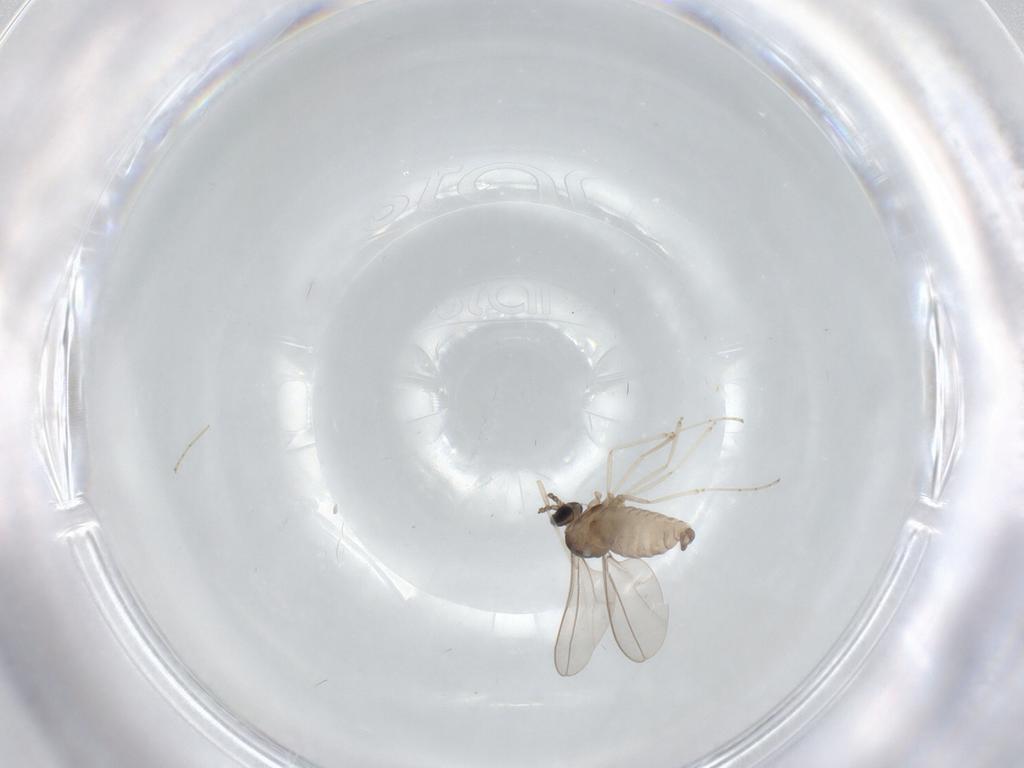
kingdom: Animalia
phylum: Arthropoda
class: Insecta
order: Diptera
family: Cecidomyiidae
